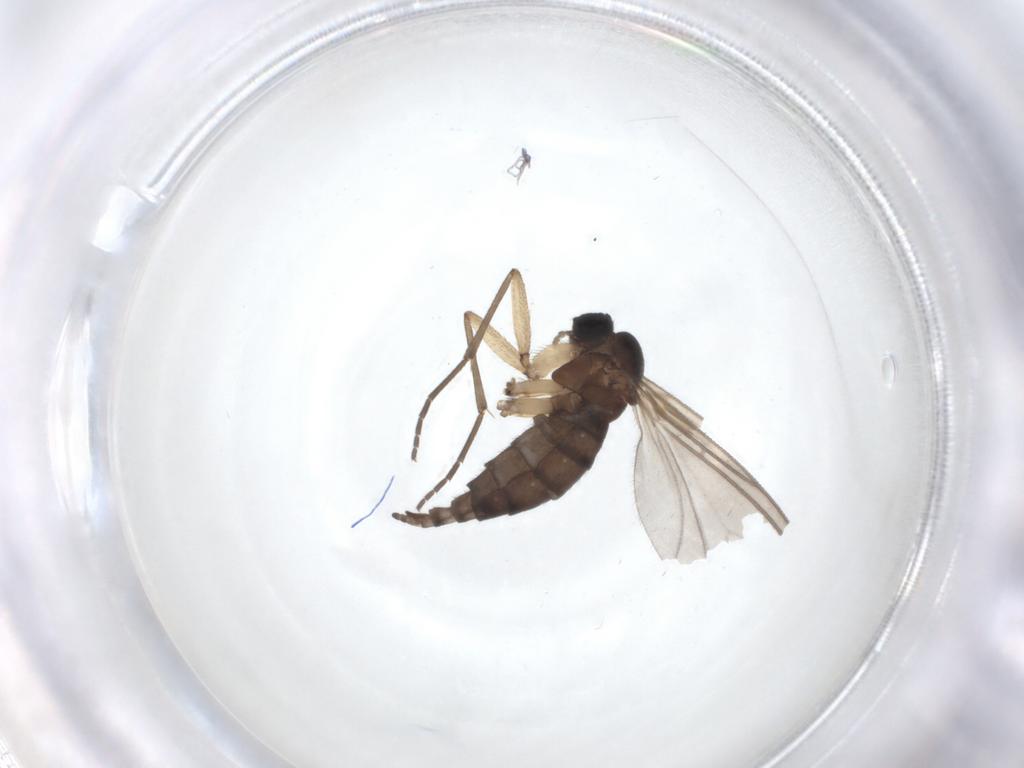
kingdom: Animalia
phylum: Arthropoda
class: Insecta
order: Diptera
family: Sciaridae
